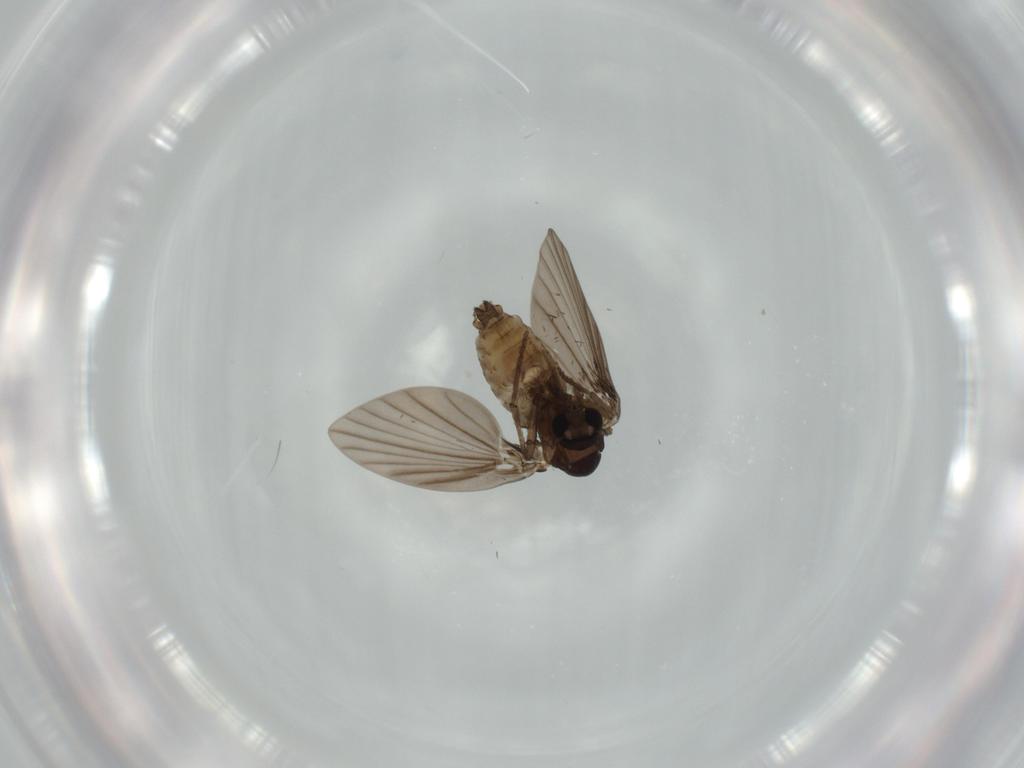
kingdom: Animalia
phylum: Arthropoda
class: Insecta
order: Diptera
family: Psychodidae
